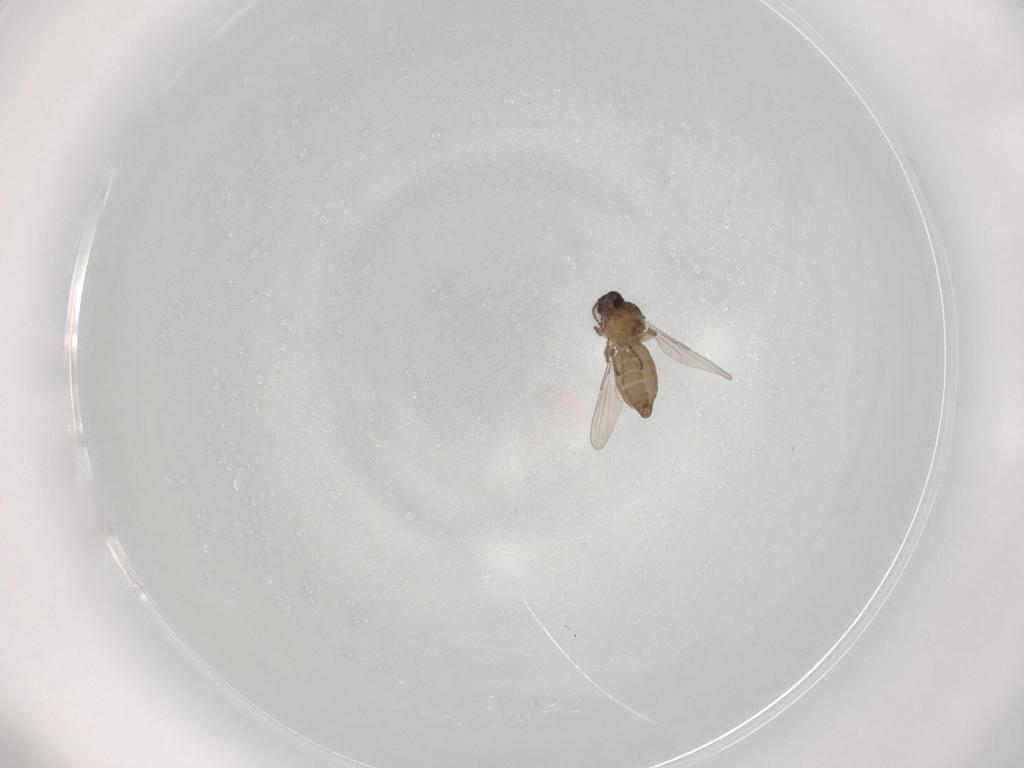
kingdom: Animalia
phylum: Arthropoda
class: Insecta
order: Diptera
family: Ceratopogonidae
